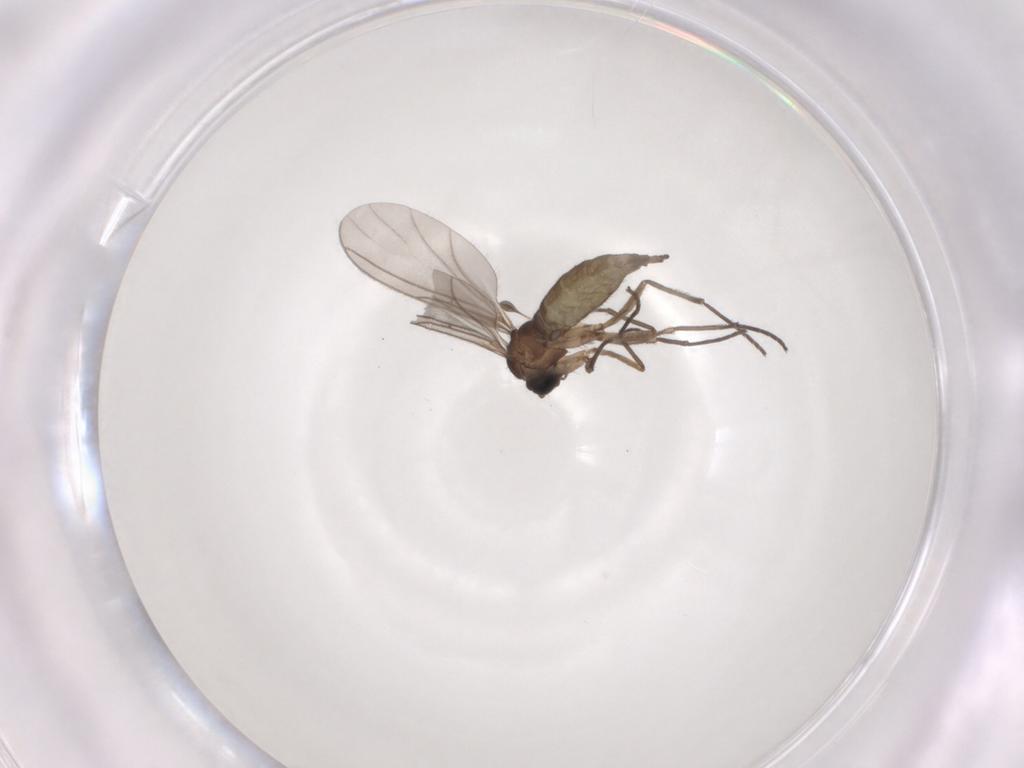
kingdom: Animalia
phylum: Arthropoda
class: Insecta
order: Diptera
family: Sciaridae
